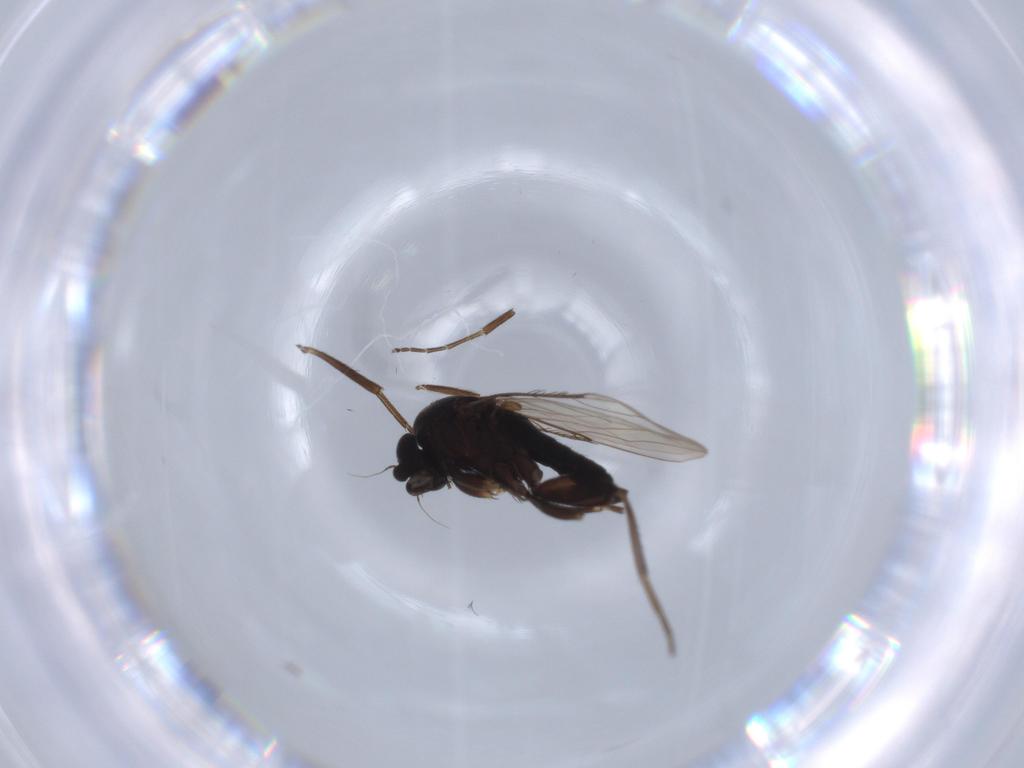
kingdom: Animalia
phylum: Arthropoda
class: Insecta
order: Diptera
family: Phoridae
